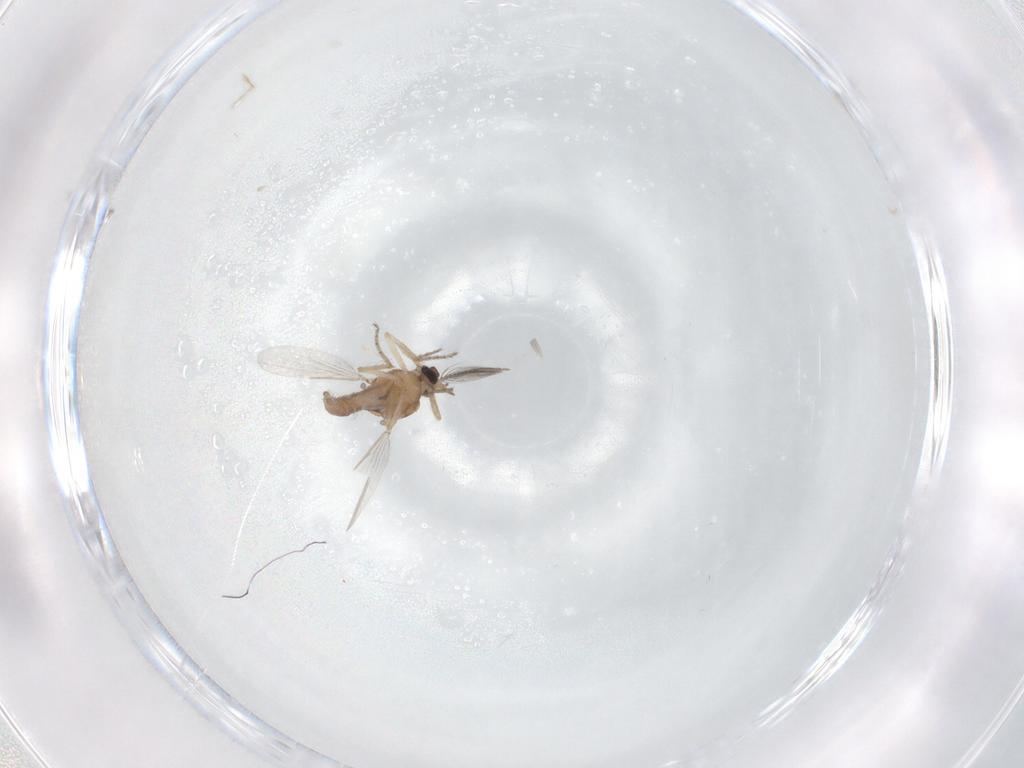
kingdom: Animalia
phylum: Arthropoda
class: Insecta
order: Diptera
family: Ceratopogonidae
